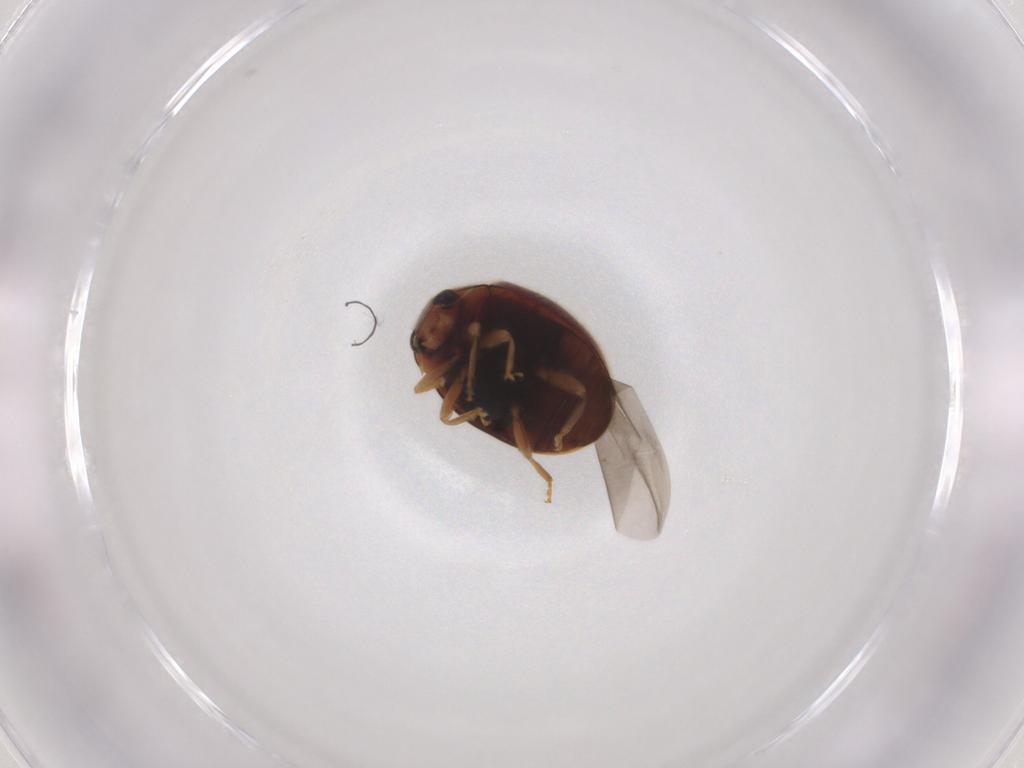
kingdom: Animalia
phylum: Arthropoda
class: Insecta
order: Coleoptera
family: Coccinellidae
